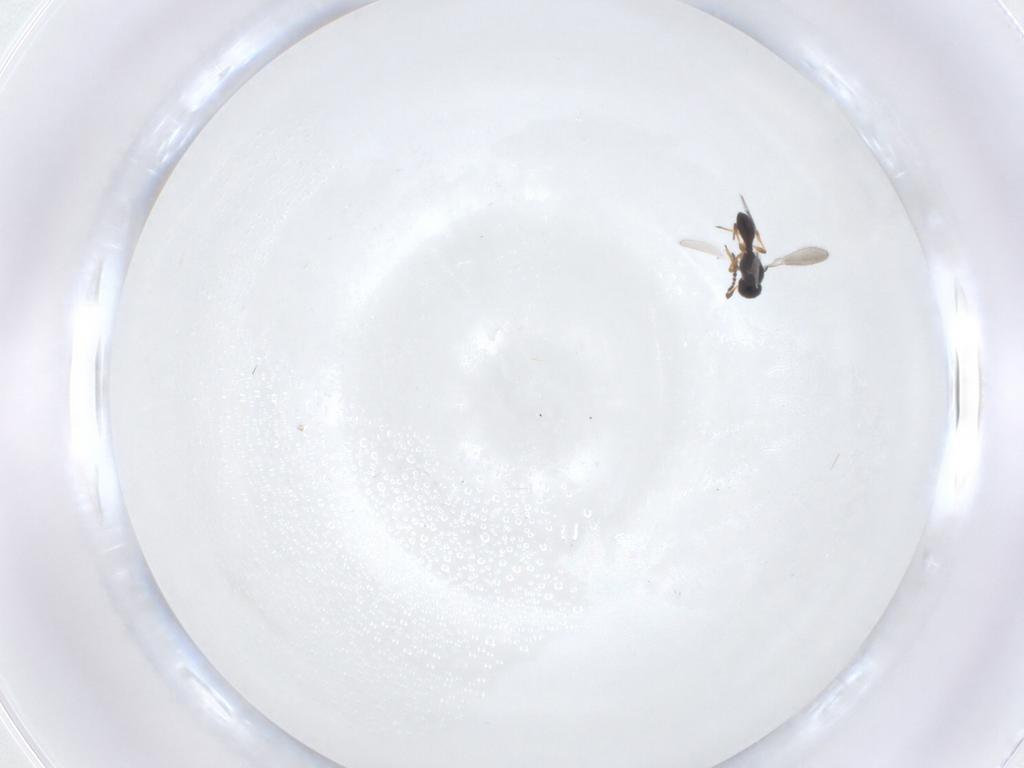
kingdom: Animalia
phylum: Arthropoda
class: Insecta
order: Hymenoptera
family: Platygastridae
